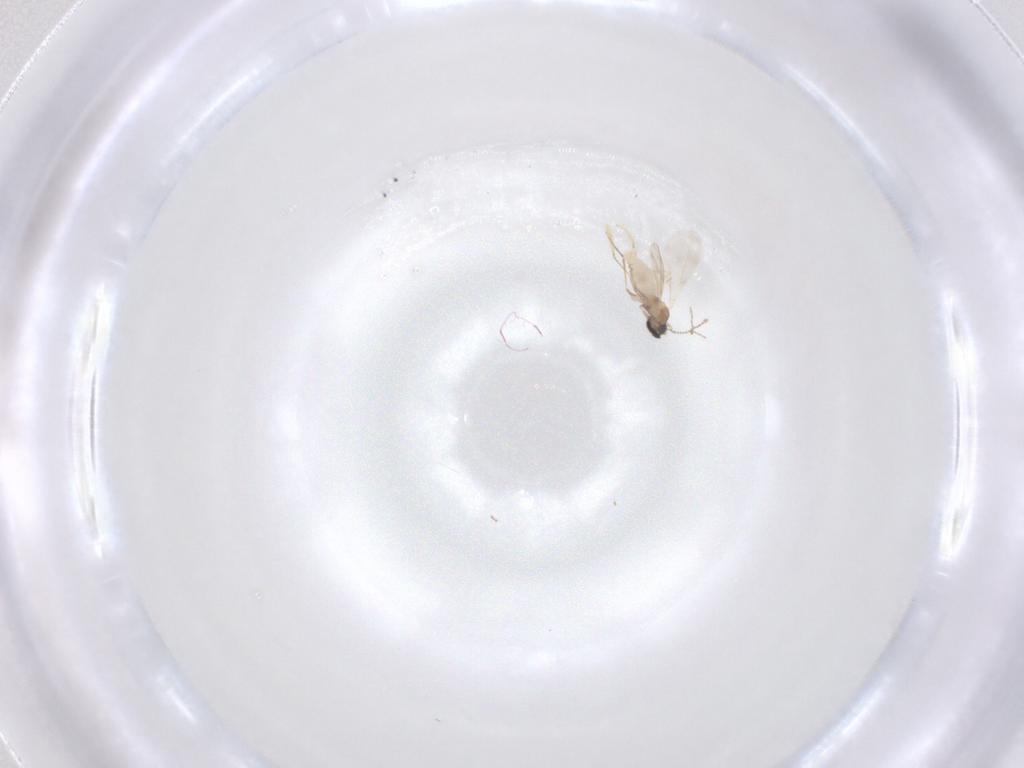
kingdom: Animalia
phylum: Arthropoda
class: Insecta
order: Diptera
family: Cecidomyiidae
